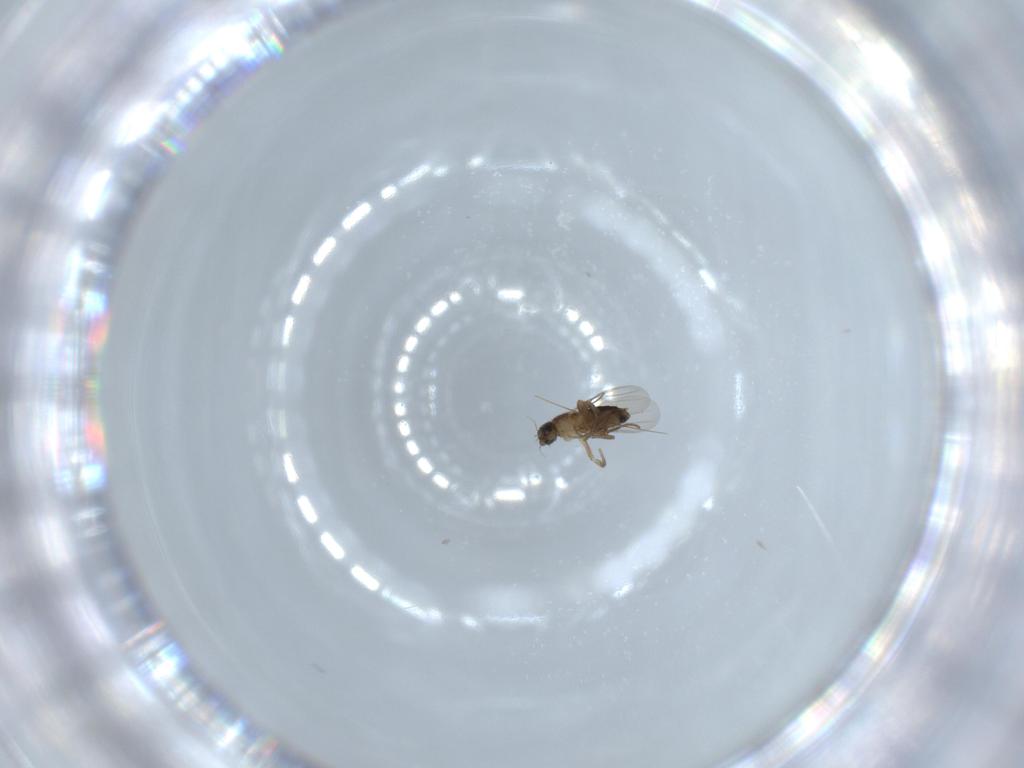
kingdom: Animalia
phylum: Arthropoda
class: Insecta
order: Diptera
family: Phoridae
